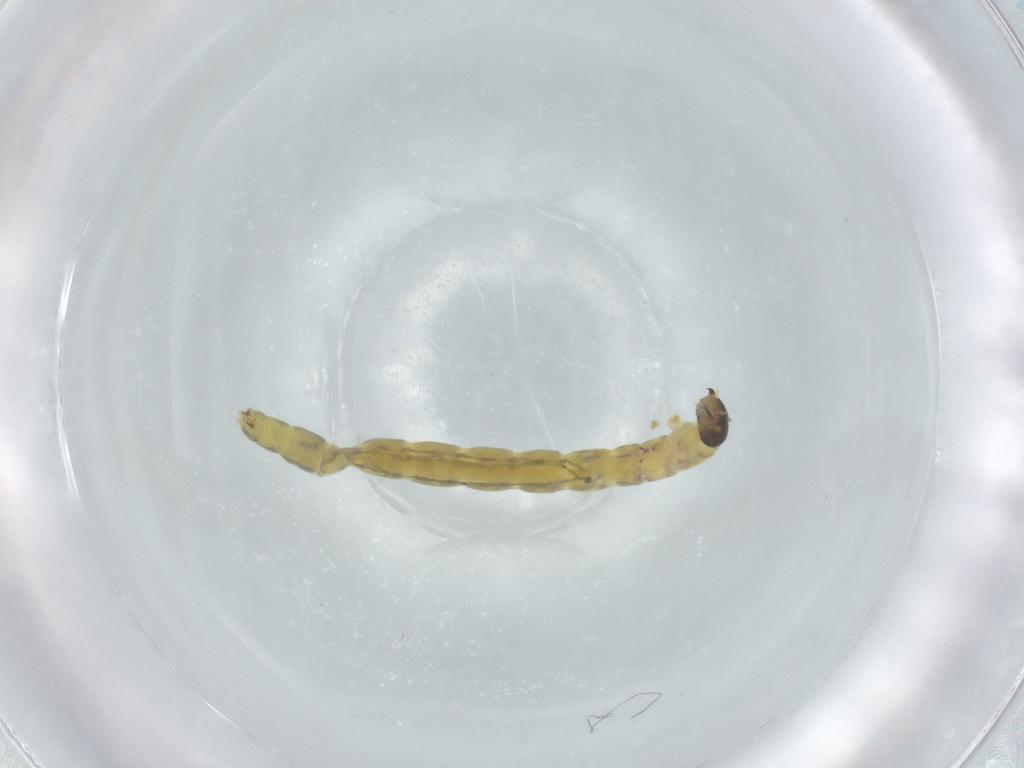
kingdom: Animalia
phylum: Arthropoda
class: Insecta
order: Diptera
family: Chironomidae
